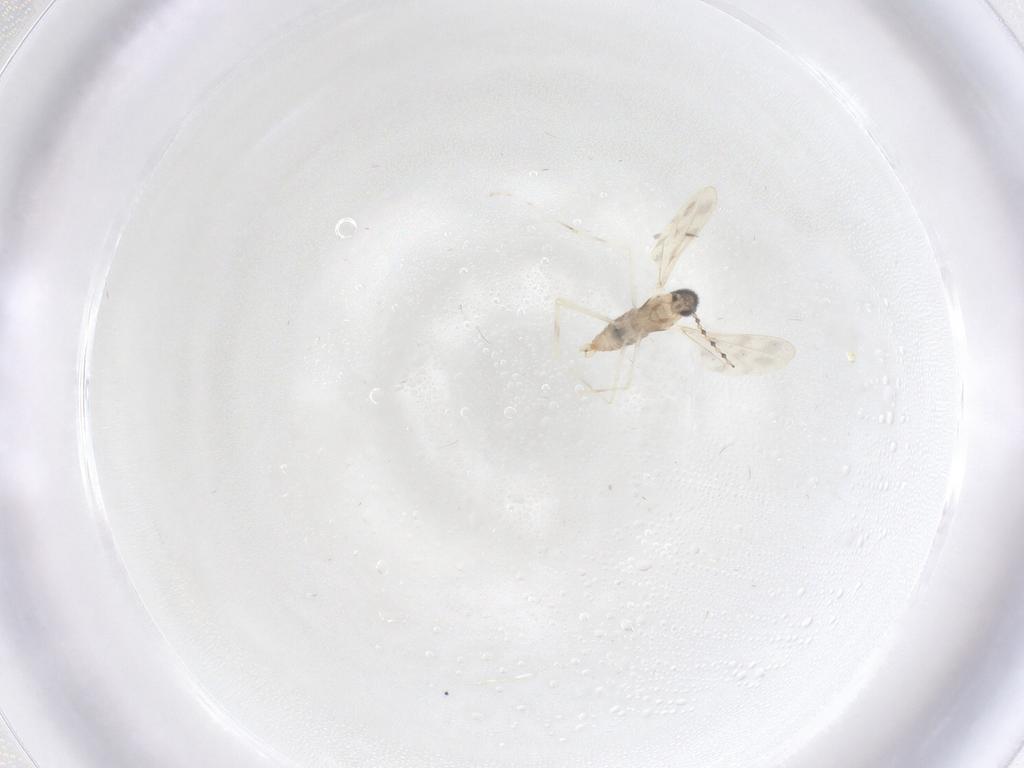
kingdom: Animalia
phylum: Arthropoda
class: Insecta
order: Diptera
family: Cecidomyiidae
